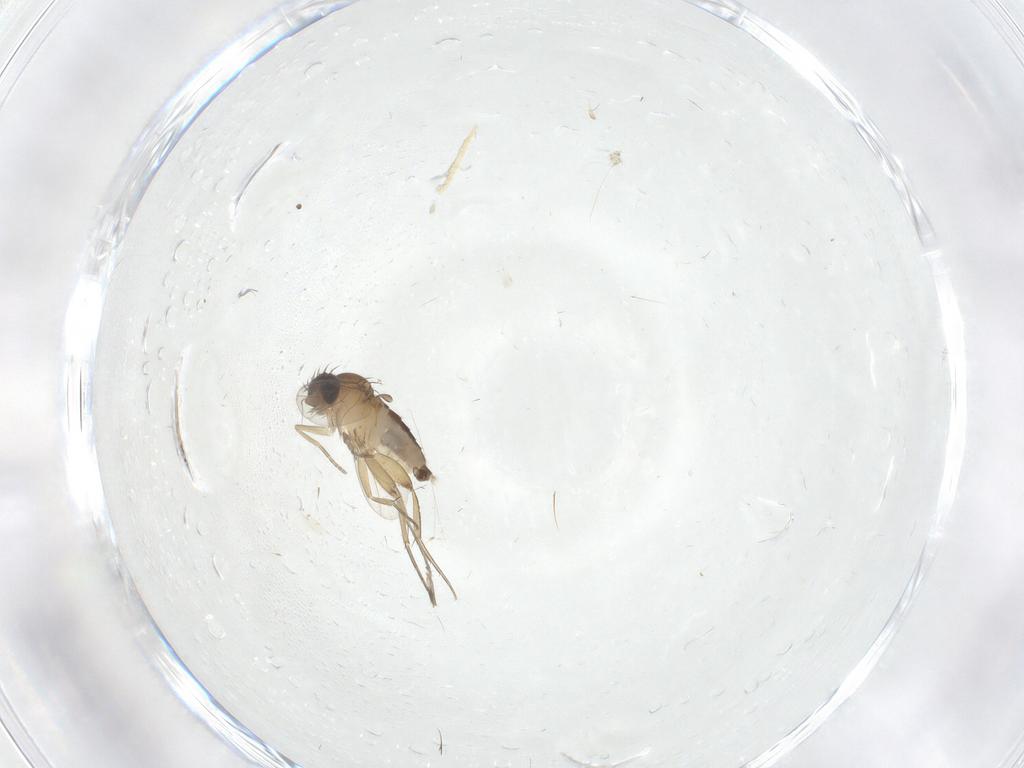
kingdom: Animalia
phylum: Arthropoda
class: Insecta
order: Diptera
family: Phoridae
